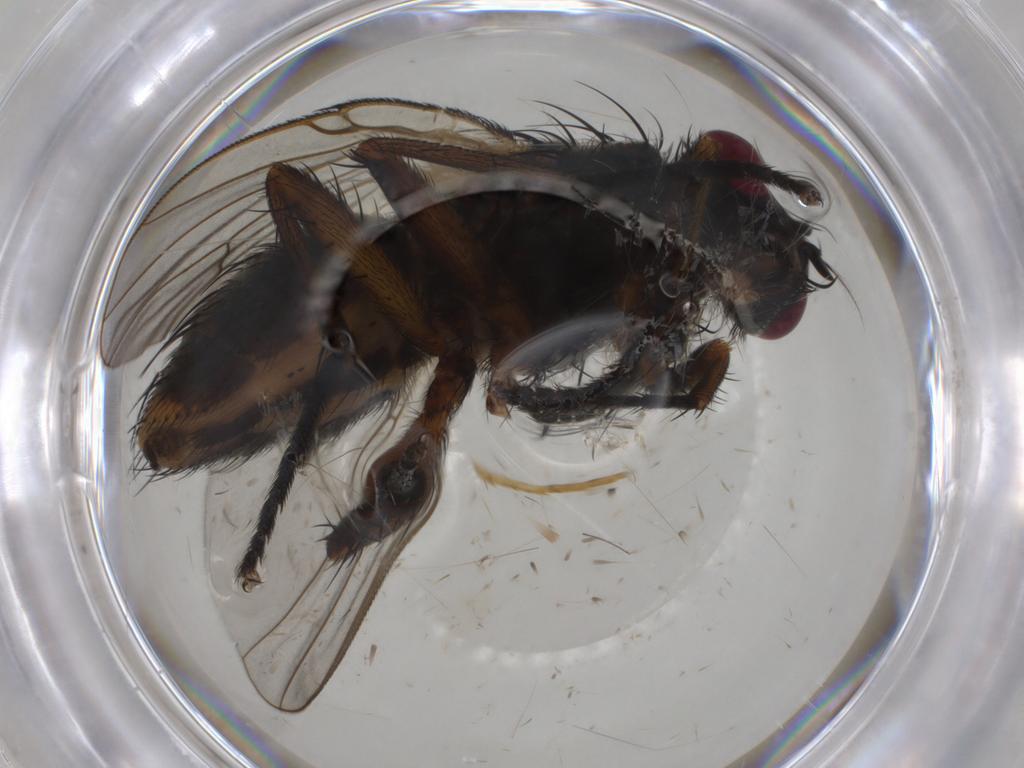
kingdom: Animalia
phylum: Arthropoda
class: Insecta
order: Diptera
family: Muscidae
